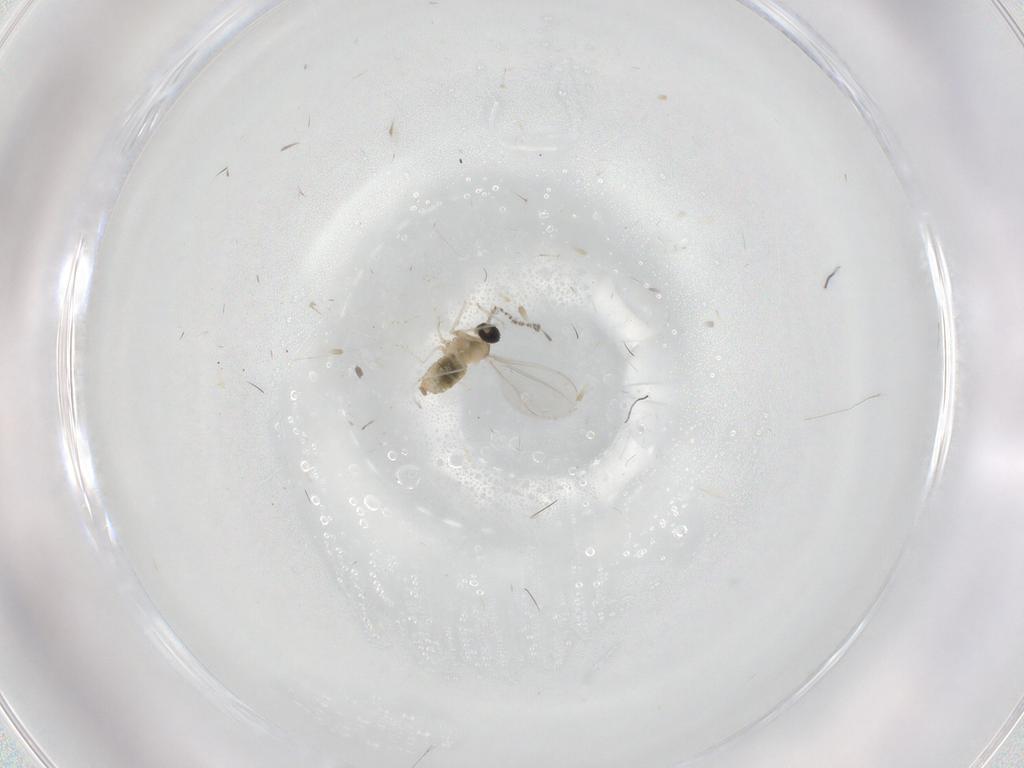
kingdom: Animalia
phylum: Arthropoda
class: Insecta
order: Diptera
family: Cecidomyiidae
